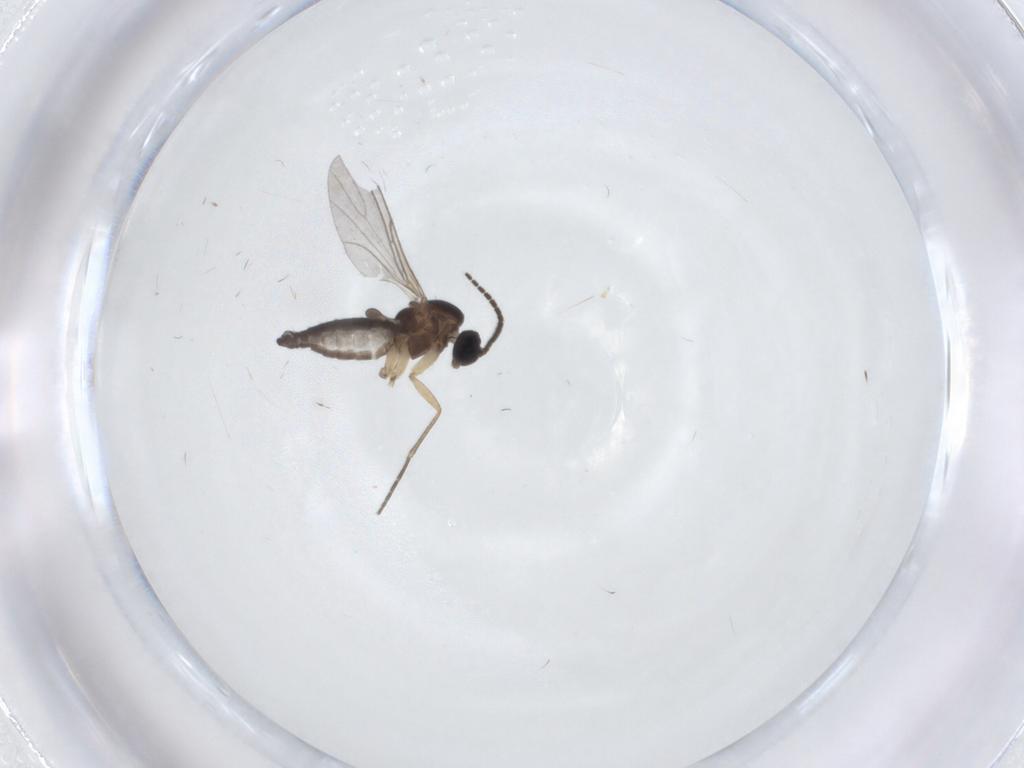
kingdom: Animalia
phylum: Arthropoda
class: Insecta
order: Diptera
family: Sciaridae
